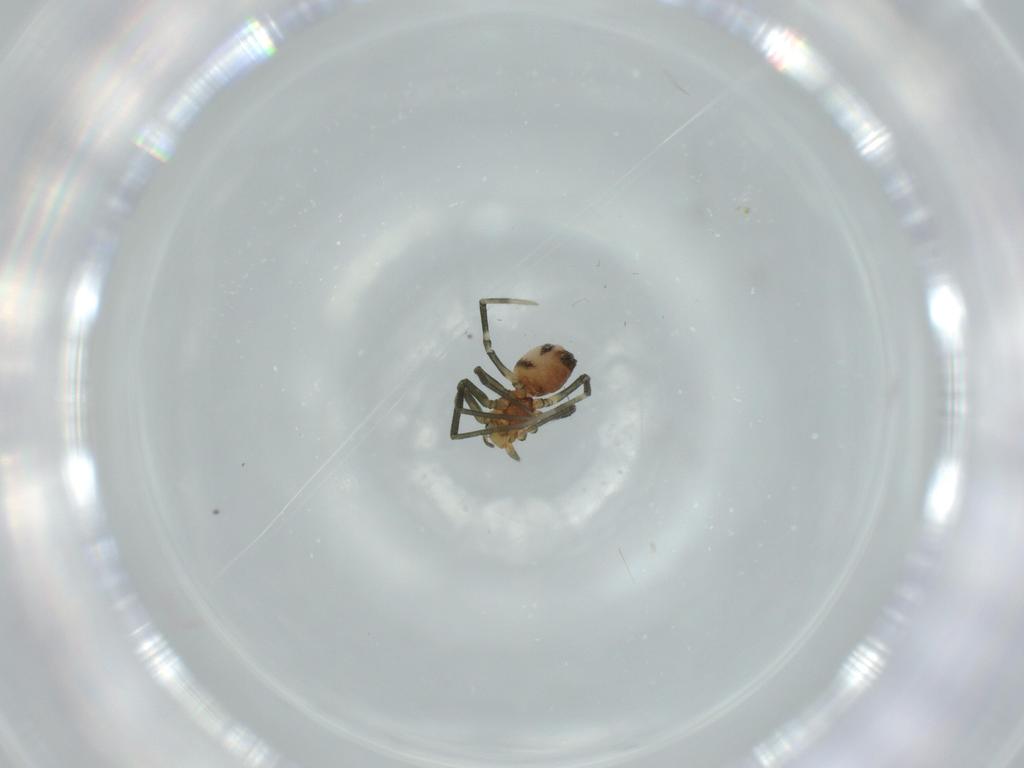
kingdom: Animalia
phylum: Arthropoda
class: Arachnida
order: Araneae
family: Linyphiidae
